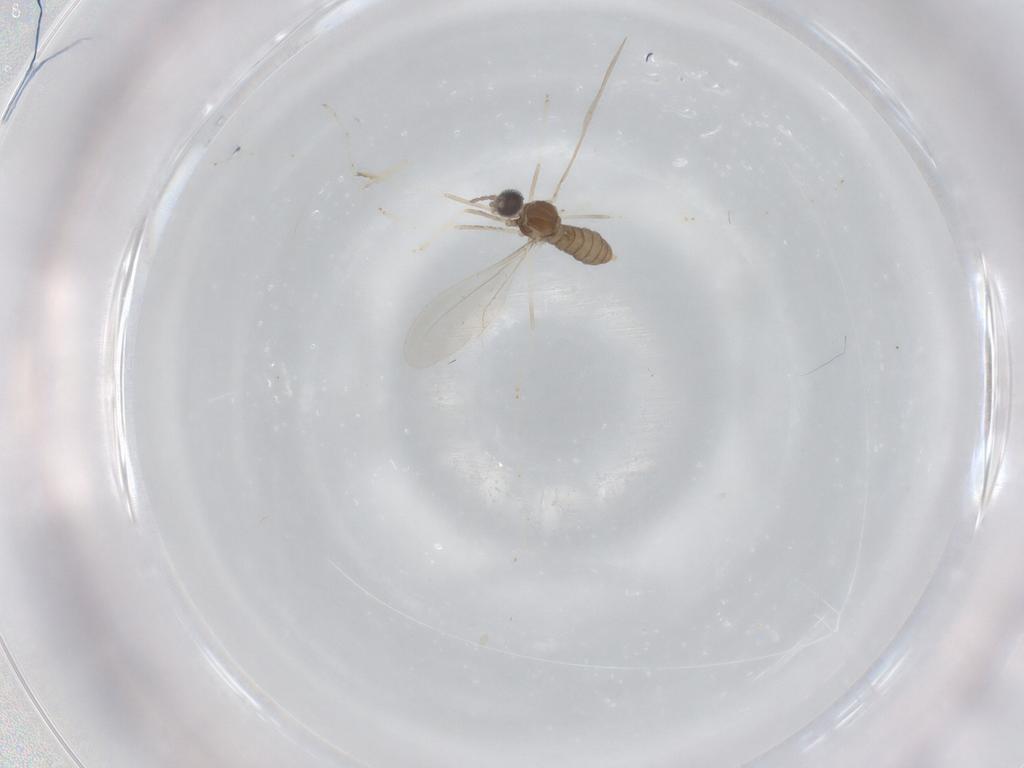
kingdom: Animalia
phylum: Arthropoda
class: Insecta
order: Diptera
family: Cecidomyiidae
